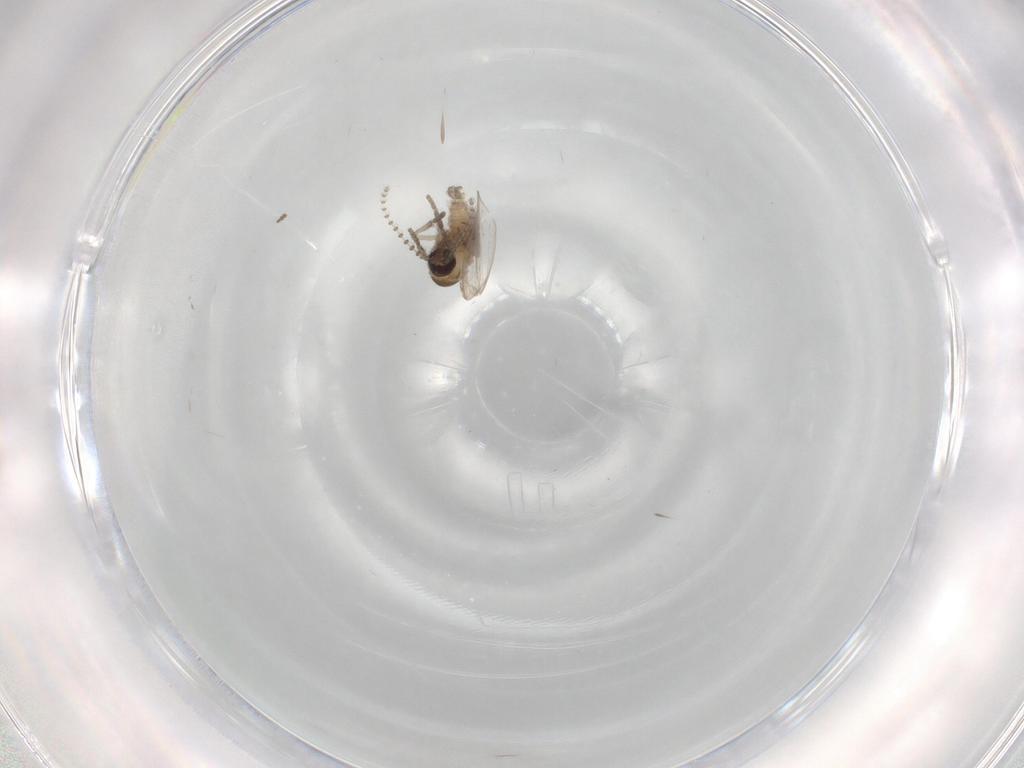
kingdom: Animalia
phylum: Arthropoda
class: Insecta
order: Diptera
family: Psychodidae
